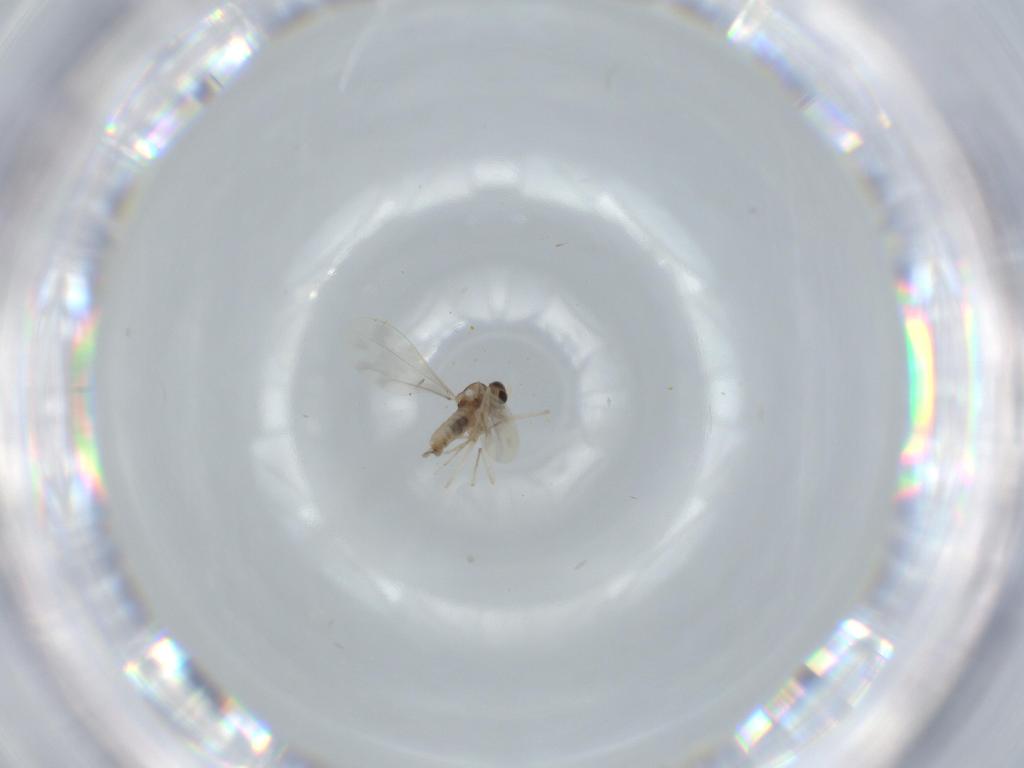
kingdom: Animalia
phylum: Arthropoda
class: Insecta
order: Diptera
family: Cecidomyiidae
